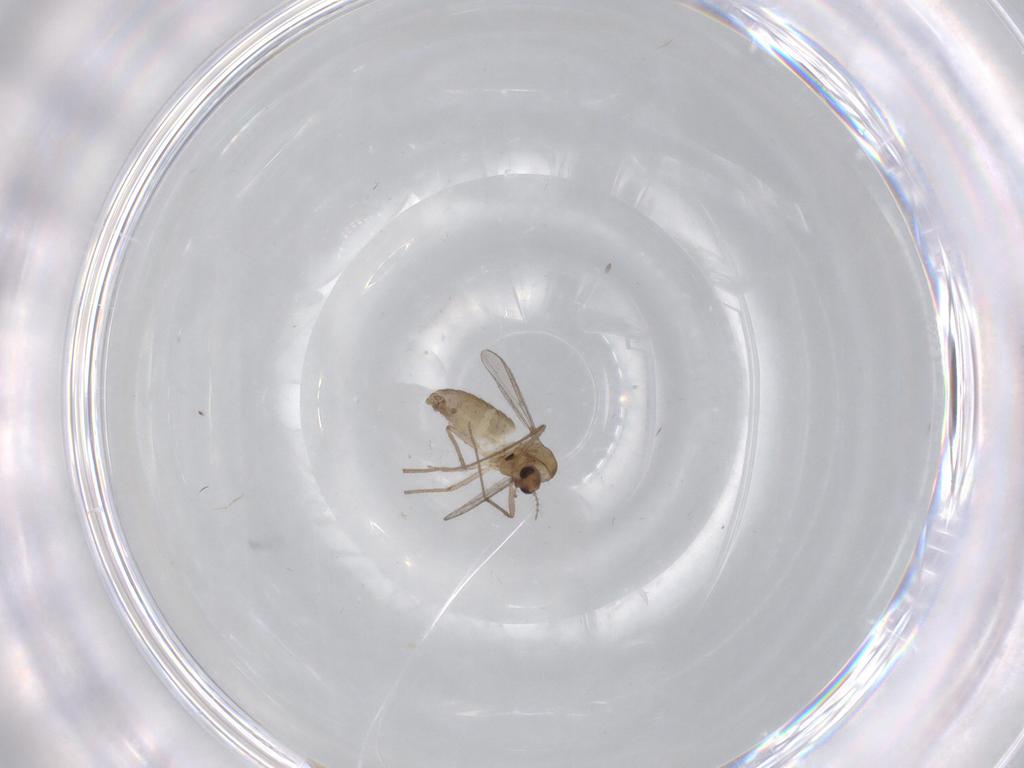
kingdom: Animalia
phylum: Arthropoda
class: Insecta
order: Diptera
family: Chironomidae
